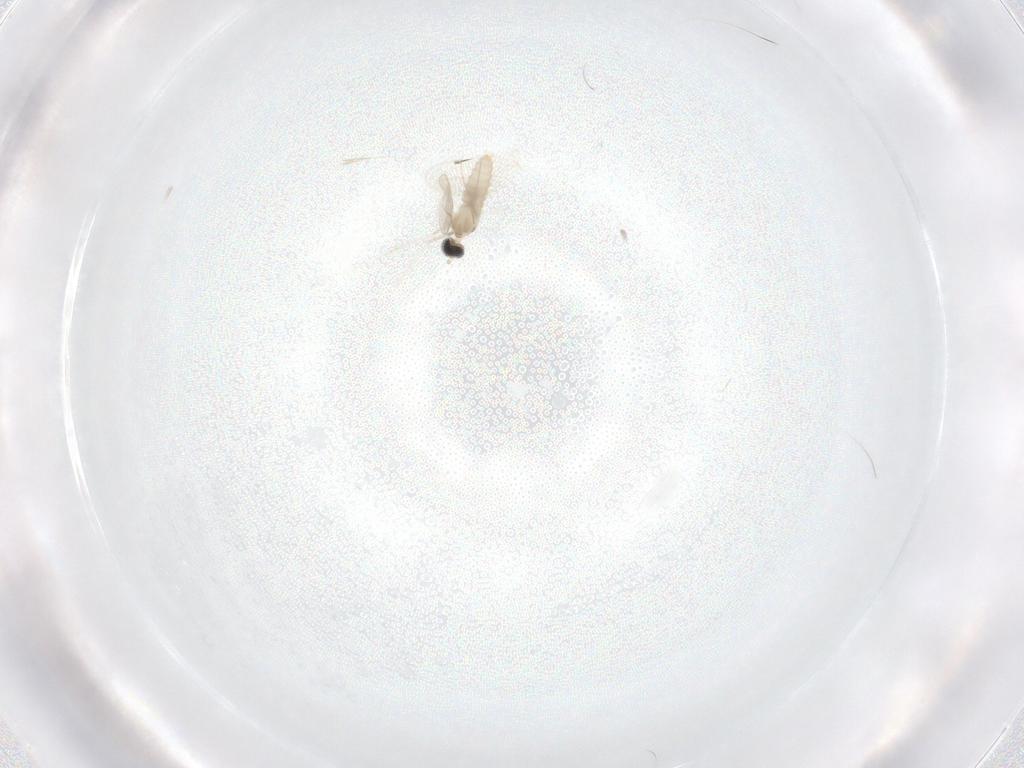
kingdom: Animalia
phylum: Arthropoda
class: Insecta
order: Diptera
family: Cecidomyiidae
